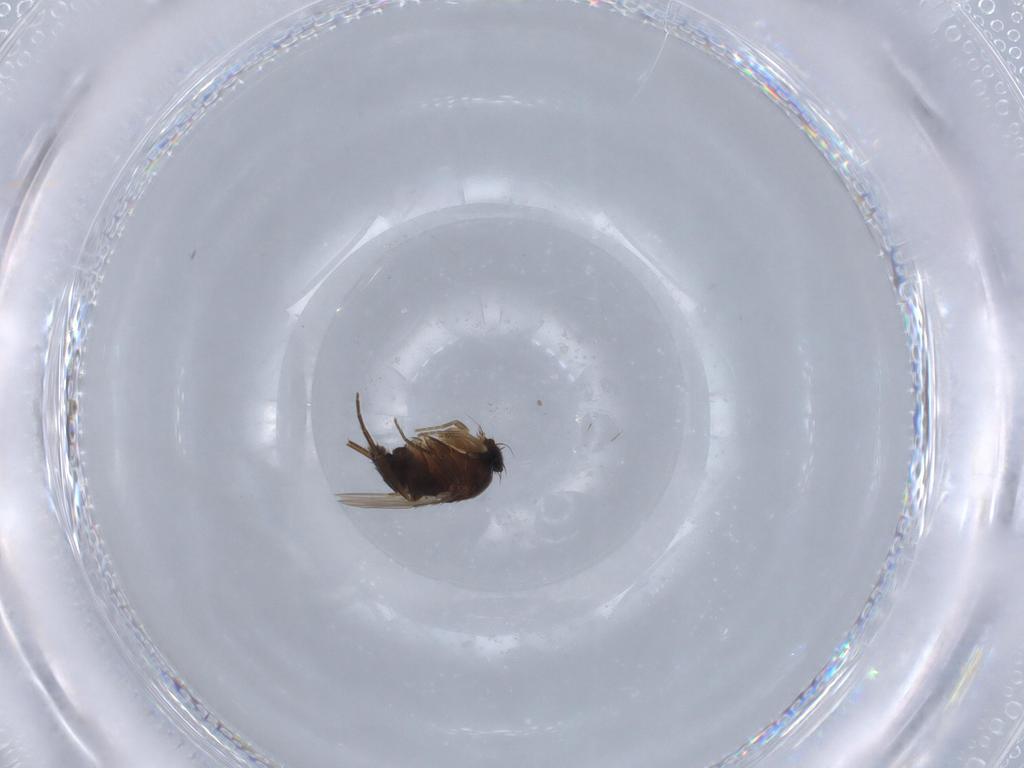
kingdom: Animalia
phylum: Arthropoda
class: Insecta
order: Diptera
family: Phoridae
